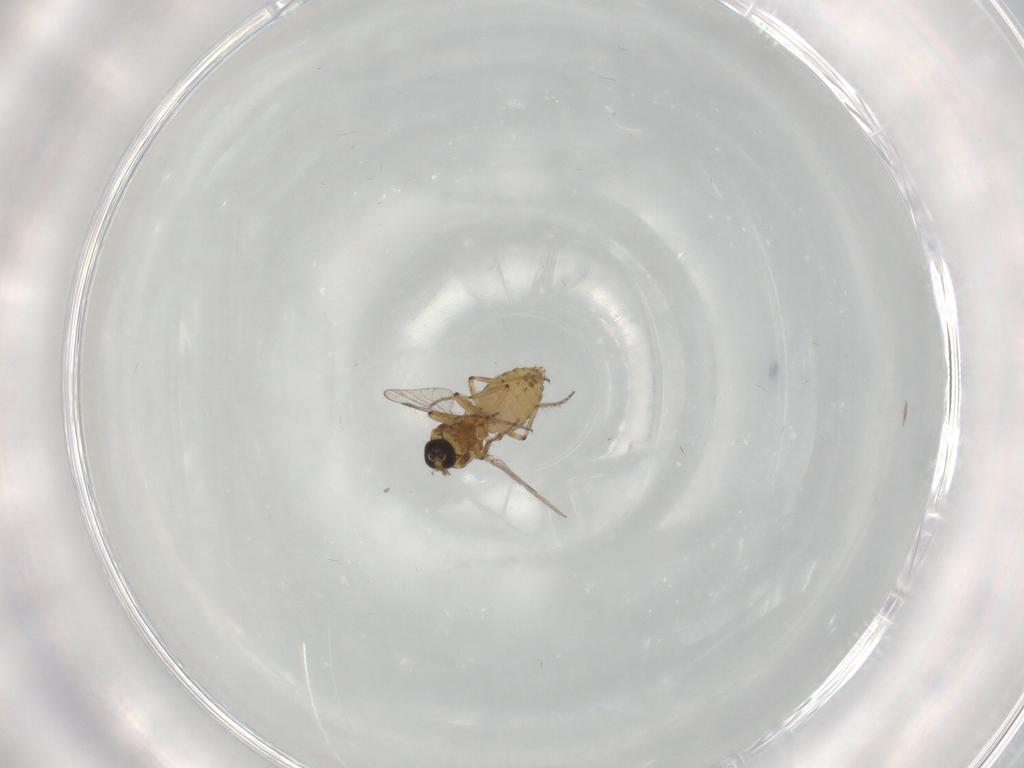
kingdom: Animalia
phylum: Arthropoda
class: Insecta
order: Diptera
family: Ceratopogonidae
